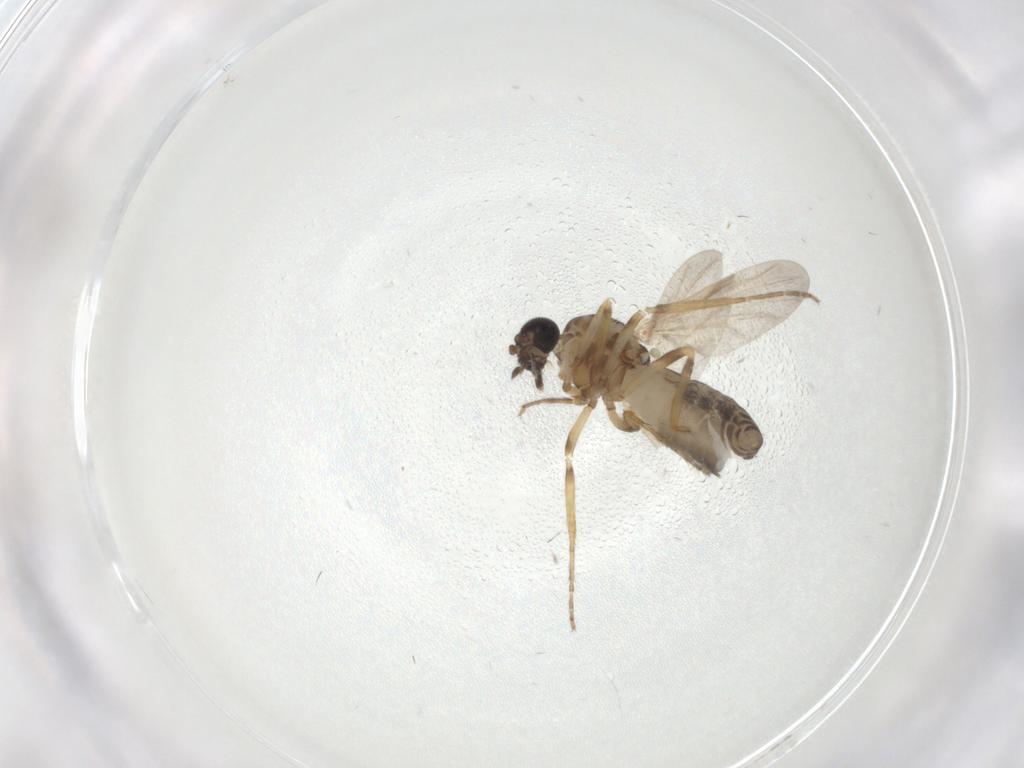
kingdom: Animalia
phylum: Arthropoda
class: Insecta
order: Diptera
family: Ceratopogonidae
